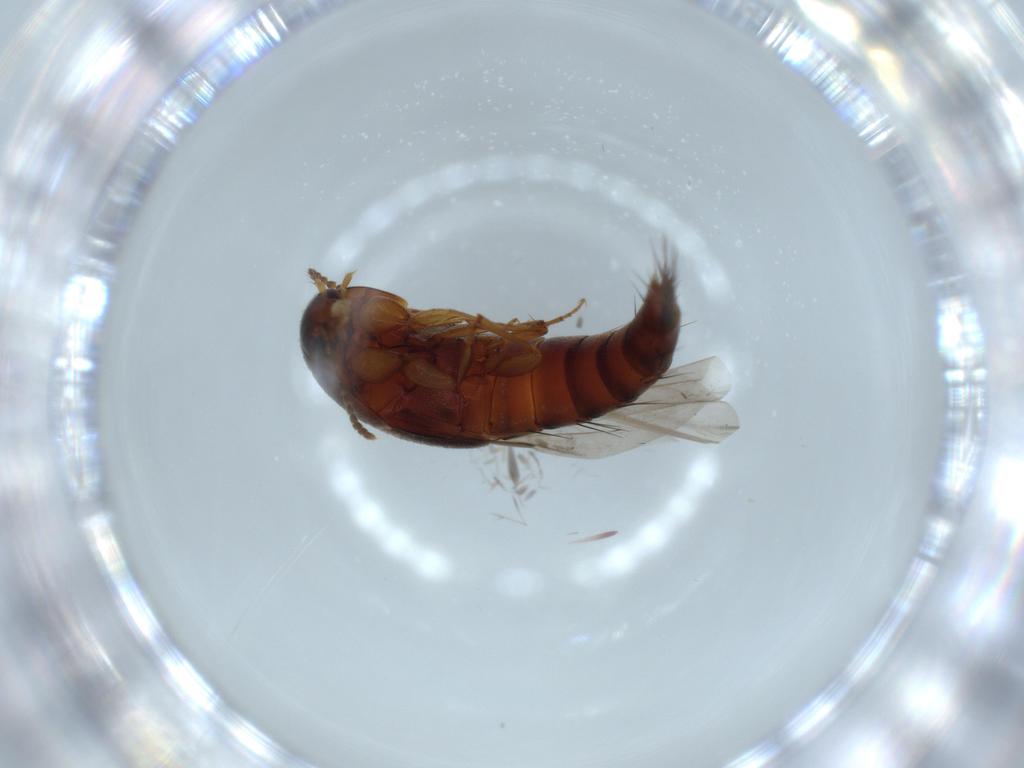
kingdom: Animalia
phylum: Arthropoda
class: Insecta
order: Coleoptera
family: Staphylinidae
